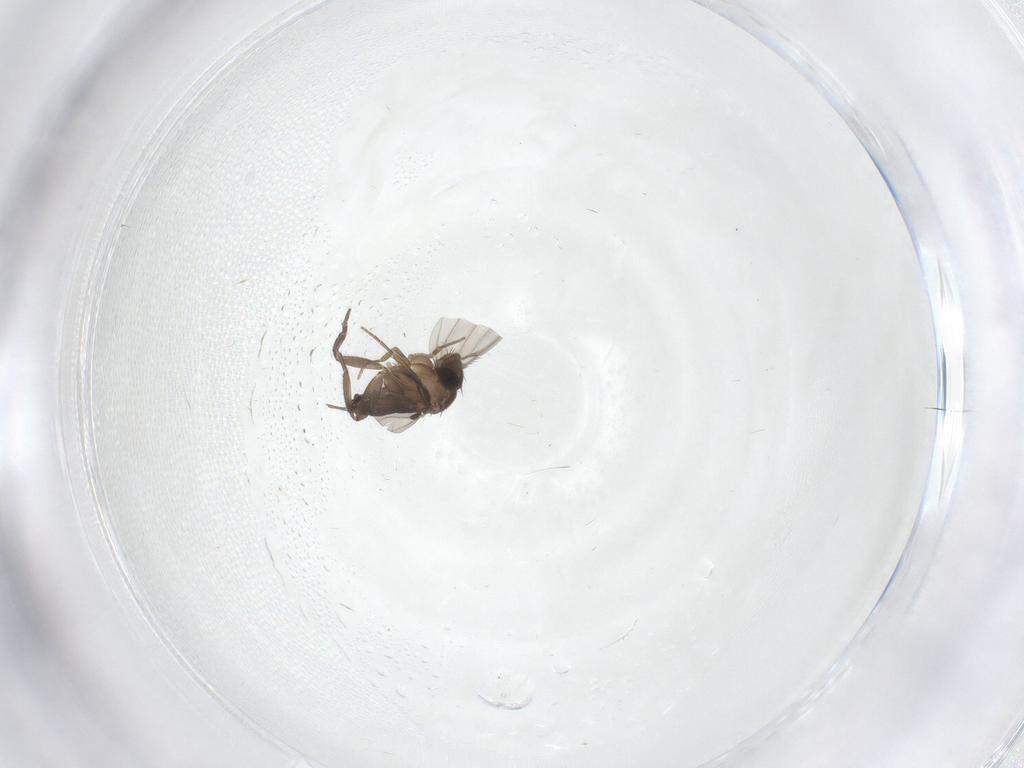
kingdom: Animalia
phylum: Arthropoda
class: Insecta
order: Diptera
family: Phoridae
